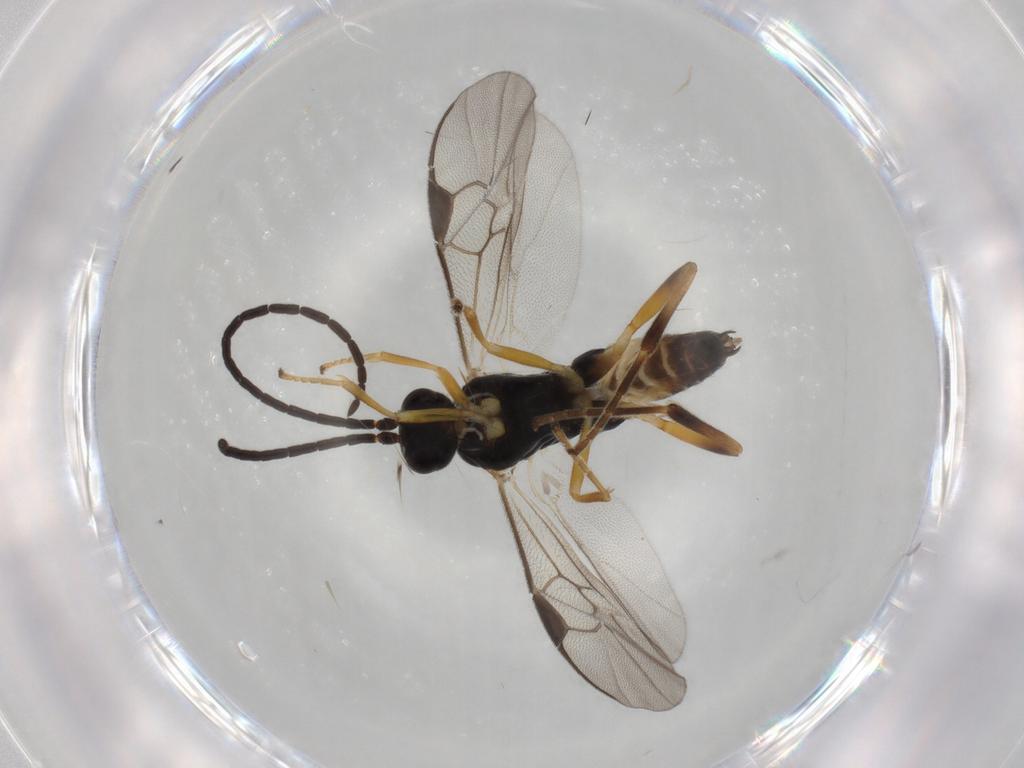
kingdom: Animalia
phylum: Arthropoda
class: Insecta
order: Hymenoptera
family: Braconidae
